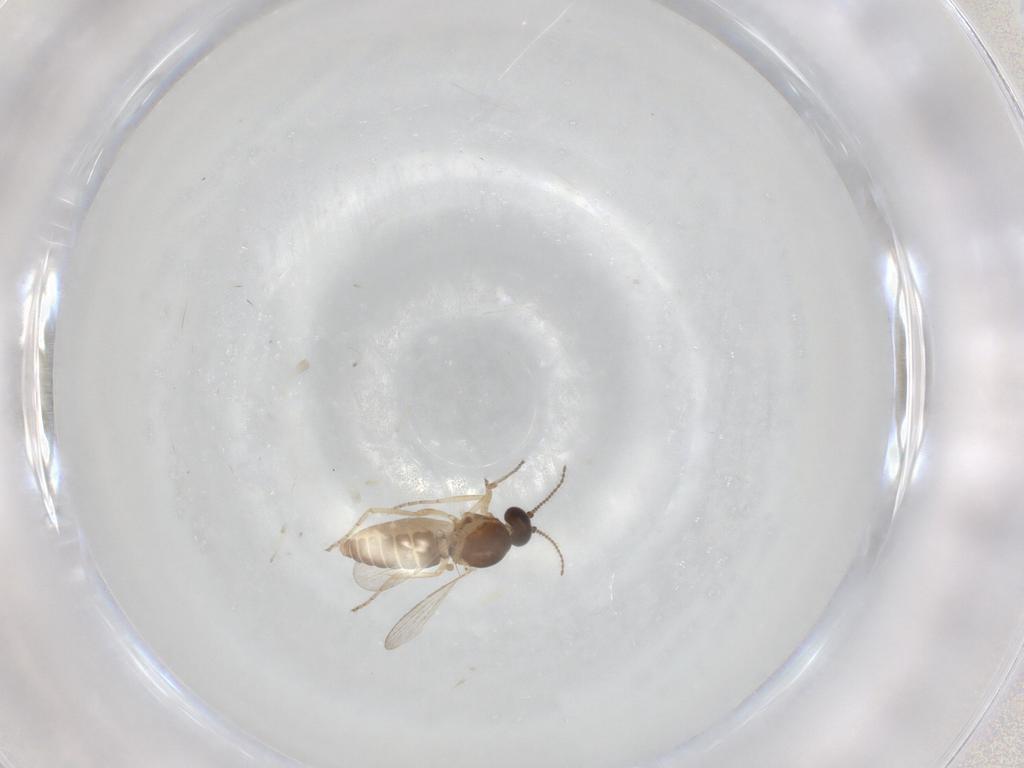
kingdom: Animalia
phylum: Arthropoda
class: Insecta
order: Diptera
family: Ceratopogonidae
